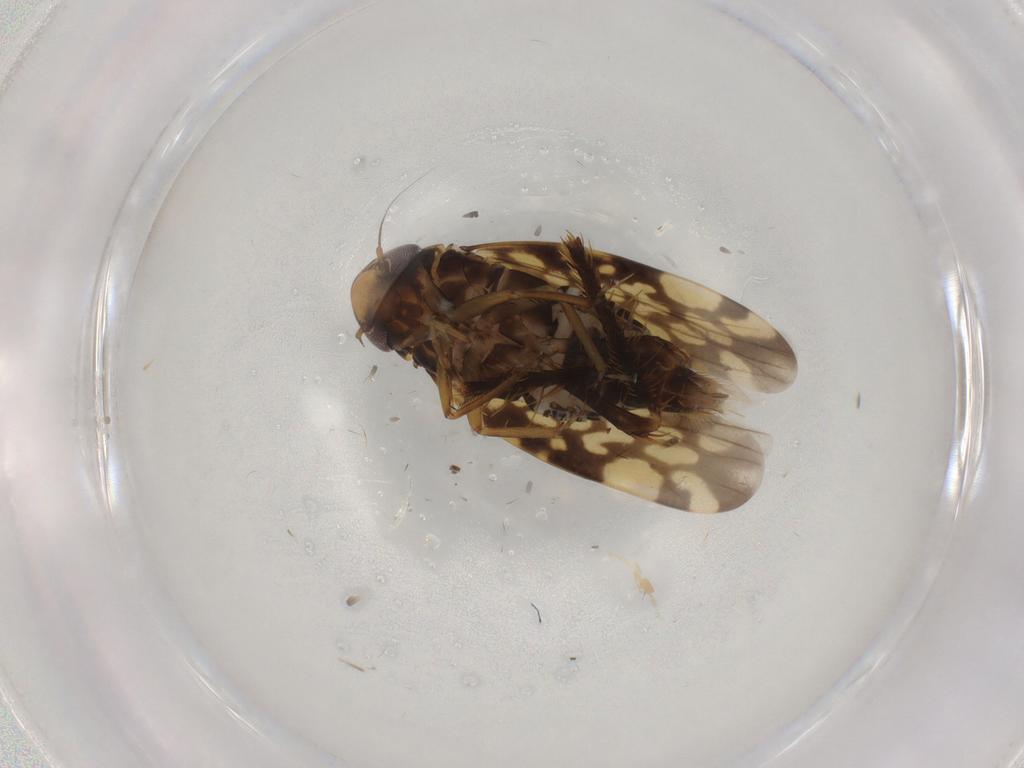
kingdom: Animalia
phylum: Arthropoda
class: Insecta
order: Hemiptera
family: Cicadellidae
